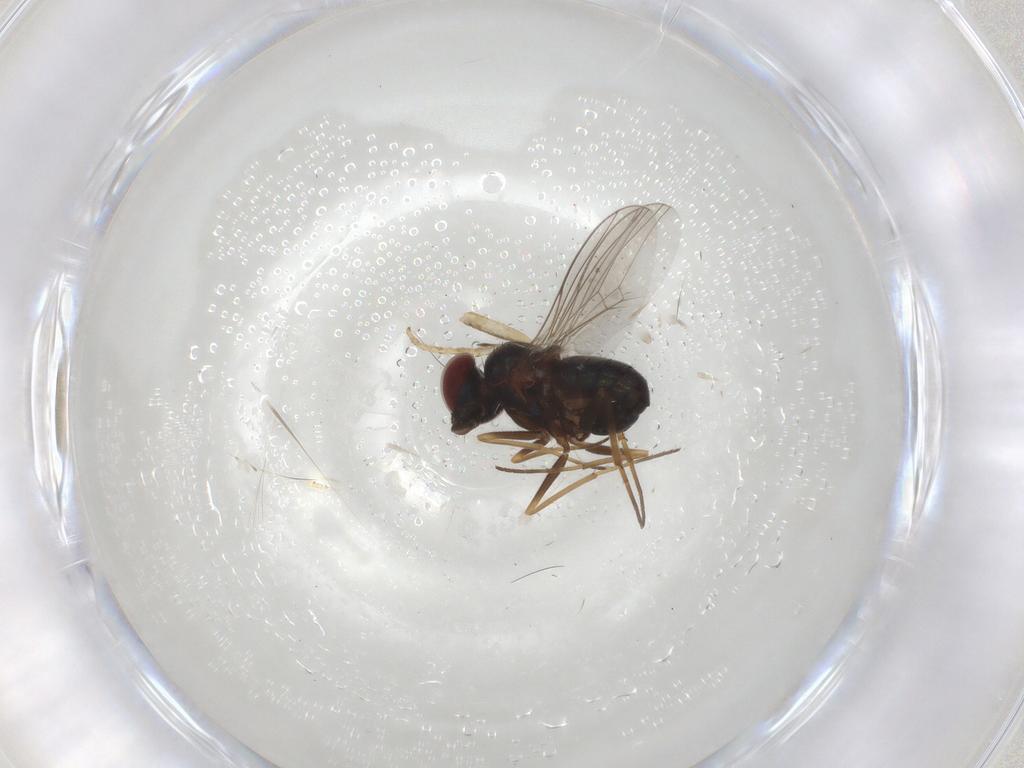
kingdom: Animalia
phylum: Arthropoda
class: Insecta
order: Diptera
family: Dolichopodidae
